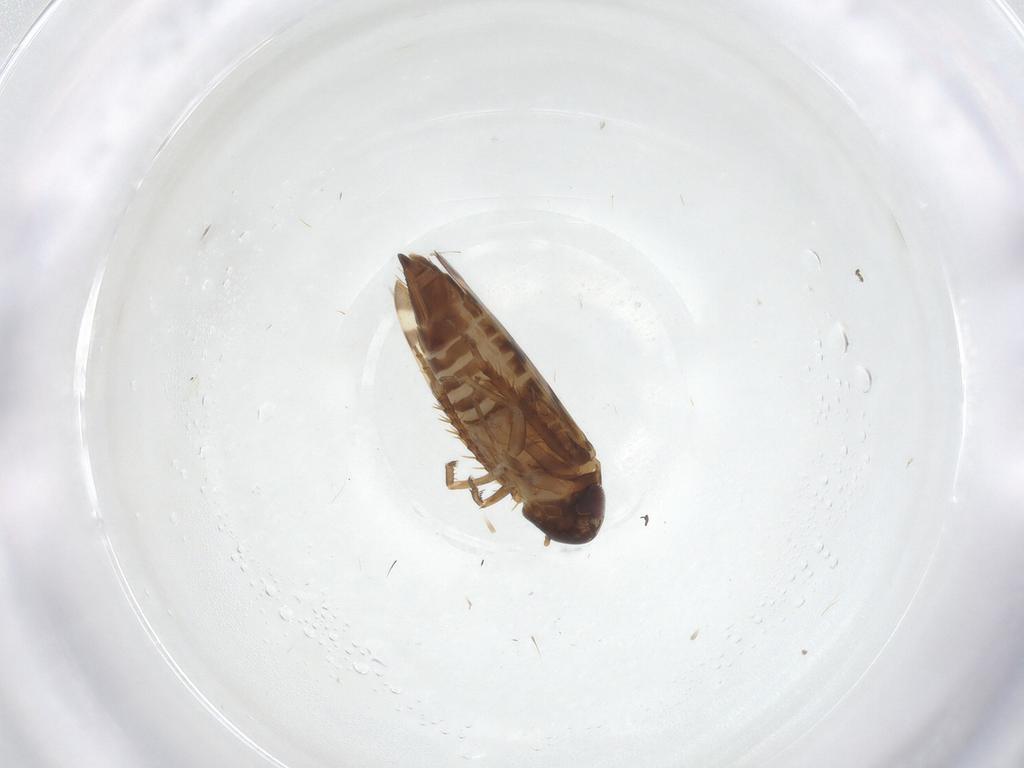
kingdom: Animalia
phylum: Arthropoda
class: Insecta
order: Hemiptera
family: Cicadellidae
